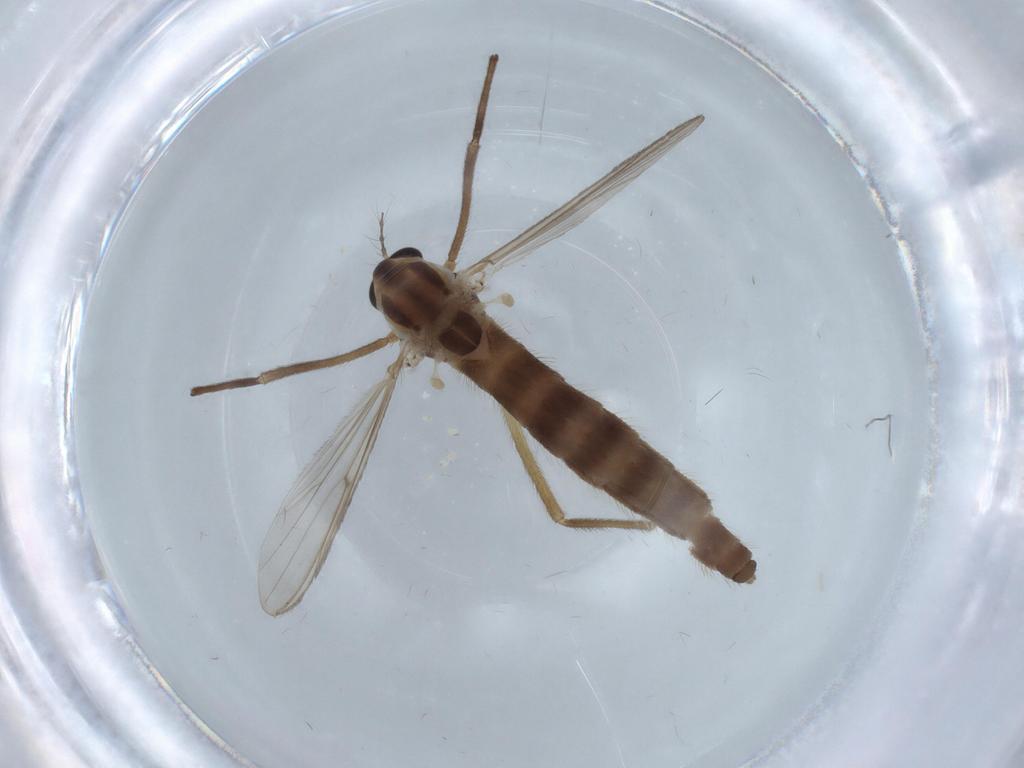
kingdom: Animalia
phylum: Arthropoda
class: Insecta
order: Diptera
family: Chironomidae
